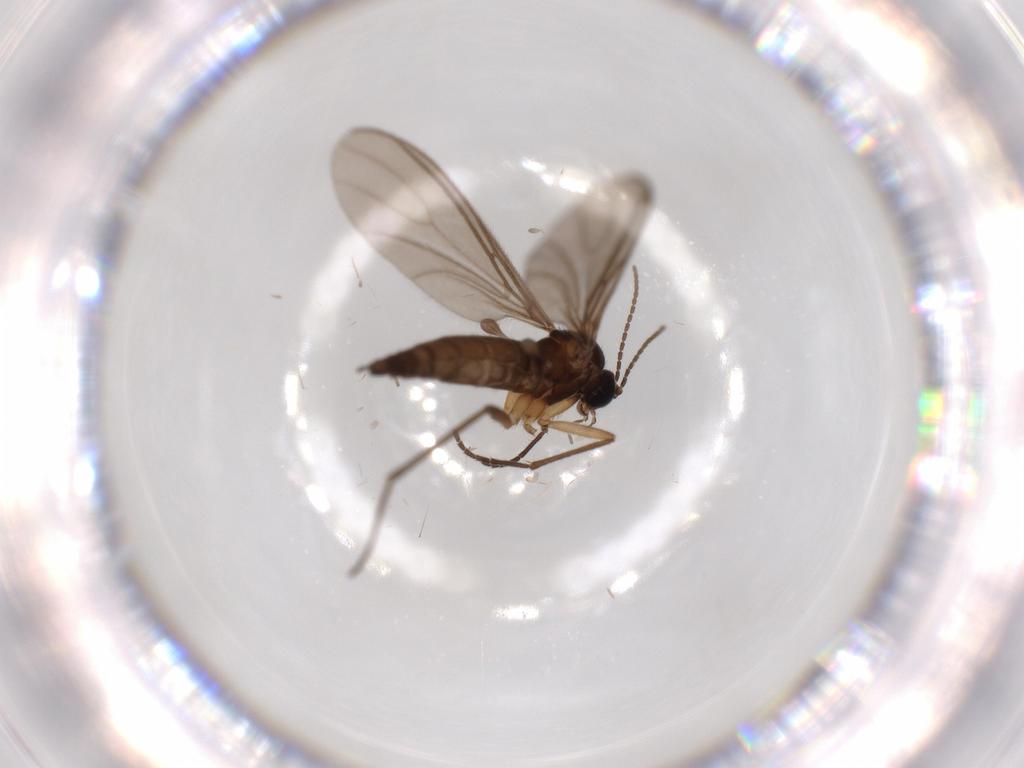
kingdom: Animalia
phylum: Arthropoda
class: Insecta
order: Diptera
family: Sciaridae
